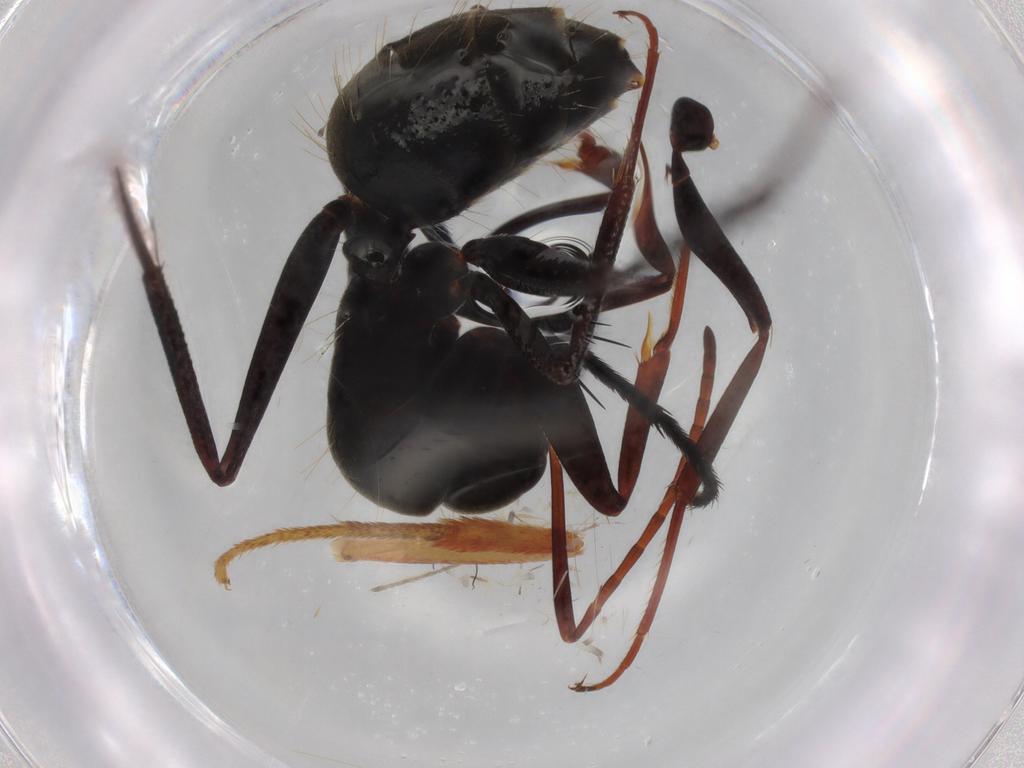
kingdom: Animalia
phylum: Arthropoda
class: Insecta
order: Hymenoptera
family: Formicidae
